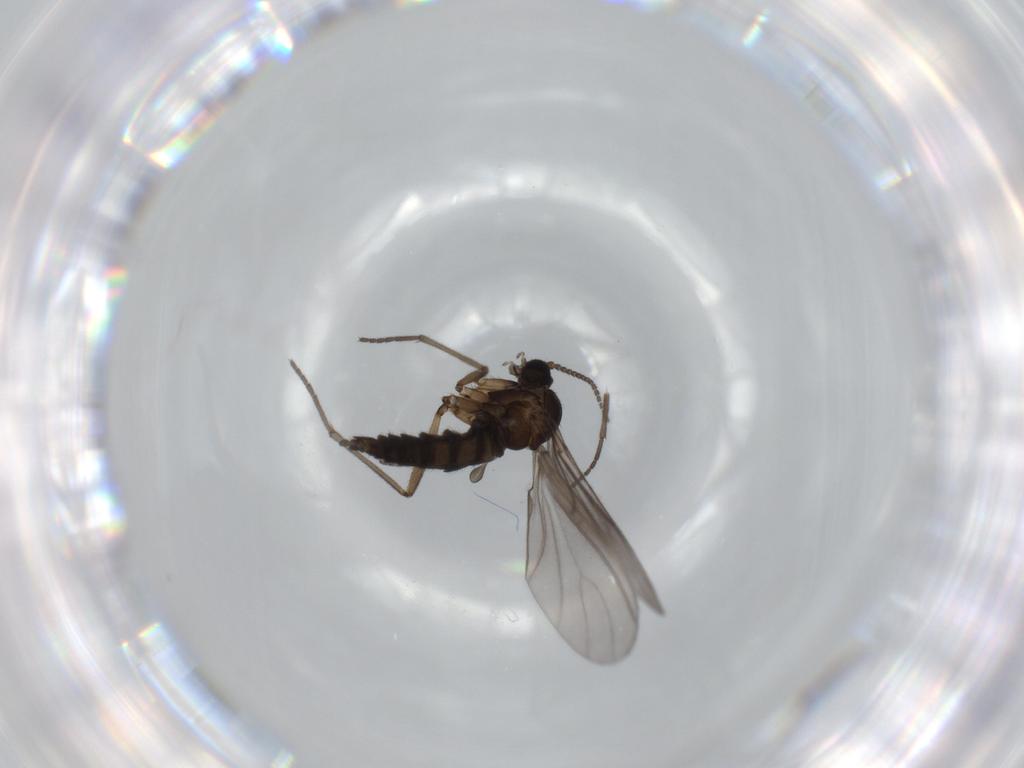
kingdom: Animalia
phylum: Arthropoda
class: Insecta
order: Diptera
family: Sciaridae
